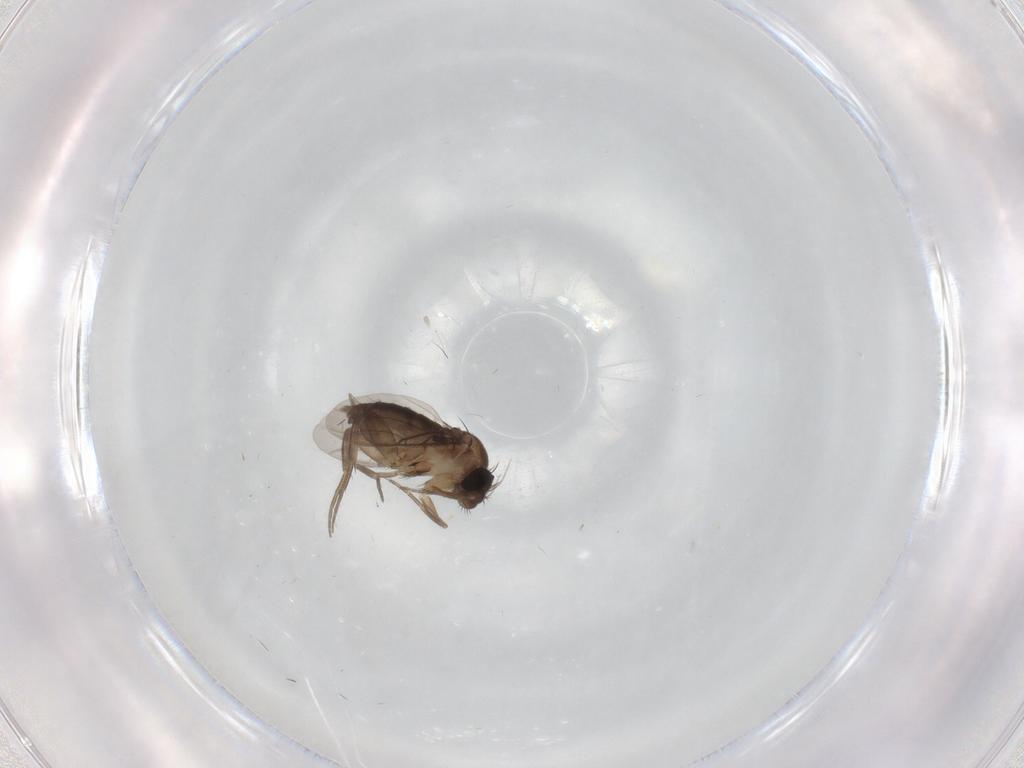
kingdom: Animalia
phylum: Arthropoda
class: Insecta
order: Diptera
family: Phoridae
